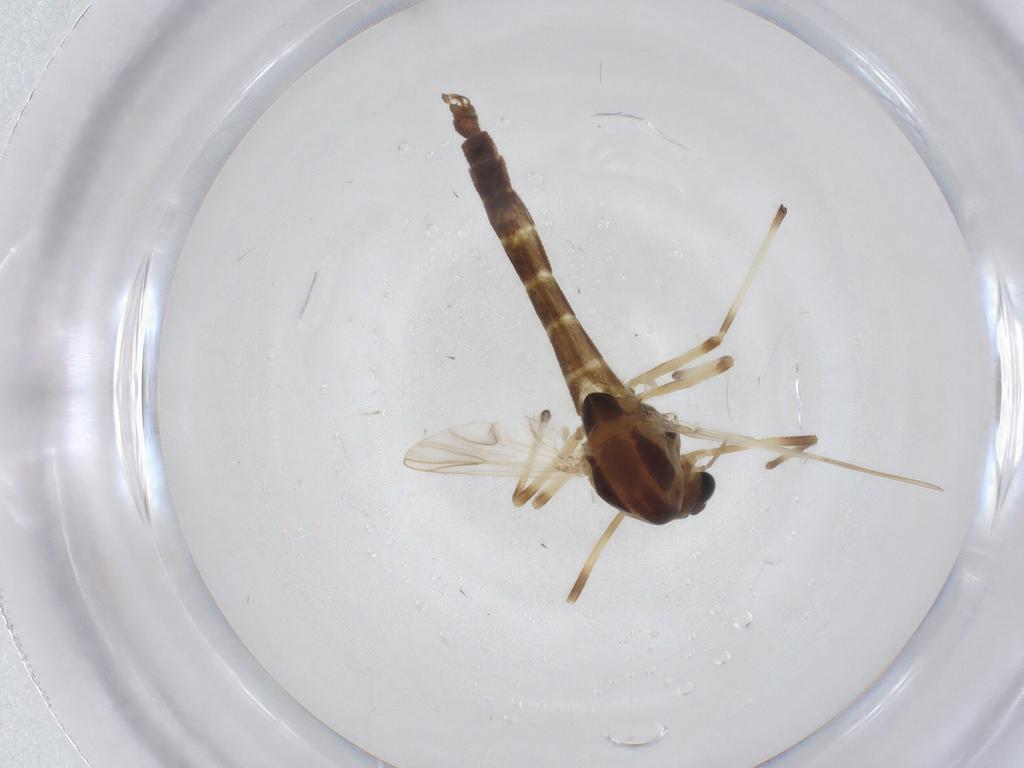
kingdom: Animalia
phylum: Arthropoda
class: Insecta
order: Diptera
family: Chironomidae
